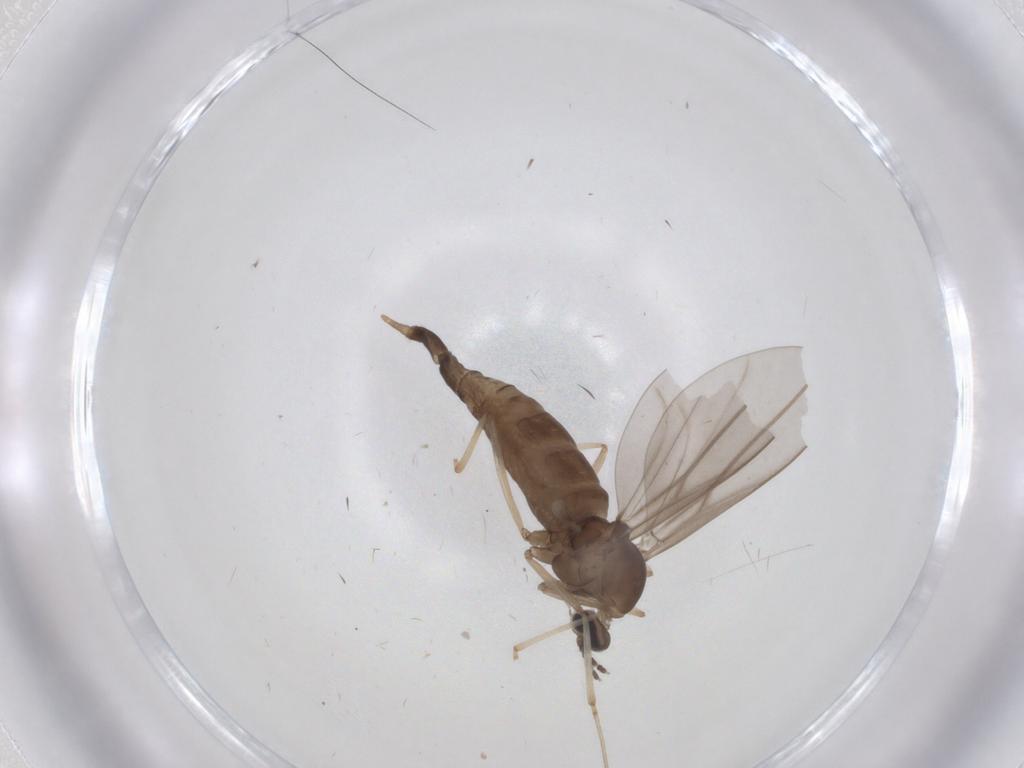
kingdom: Animalia
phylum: Arthropoda
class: Insecta
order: Diptera
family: Cecidomyiidae
